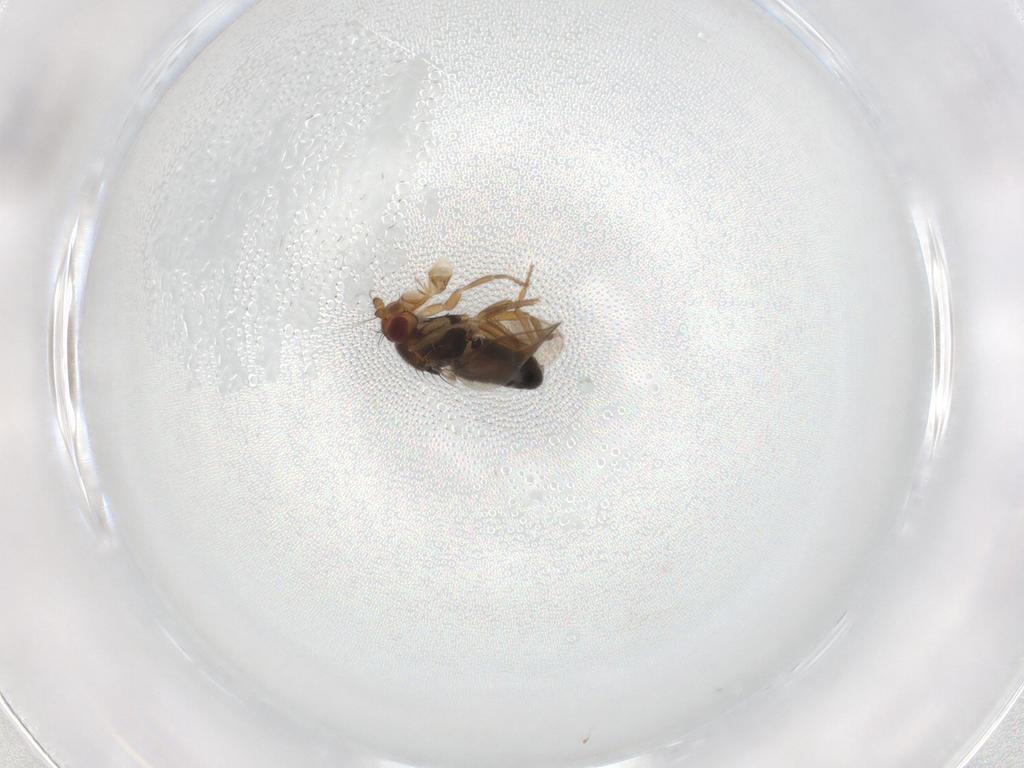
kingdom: Animalia
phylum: Arthropoda
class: Insecta
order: Diptera
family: Sphaeroceridae
